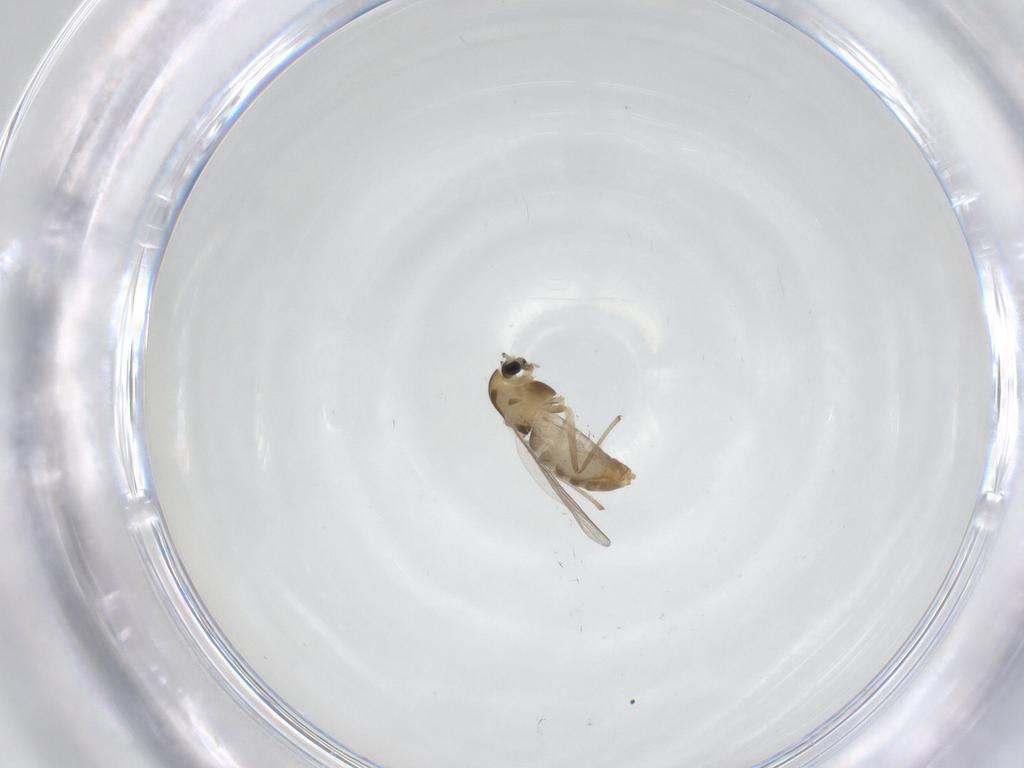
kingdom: Animalia
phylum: Arthropoda
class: Insecta
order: Diptera
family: Chironomidae
